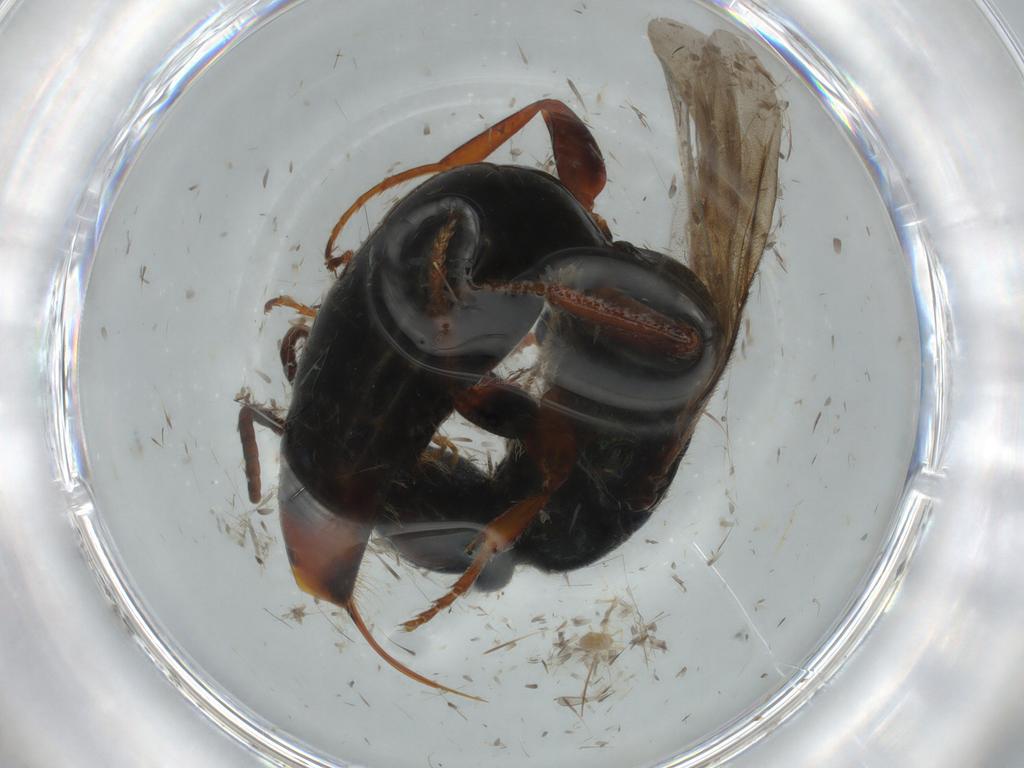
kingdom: Animalia
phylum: Arthropoda
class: Insecta
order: Hymenoptera
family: Bethylidae
